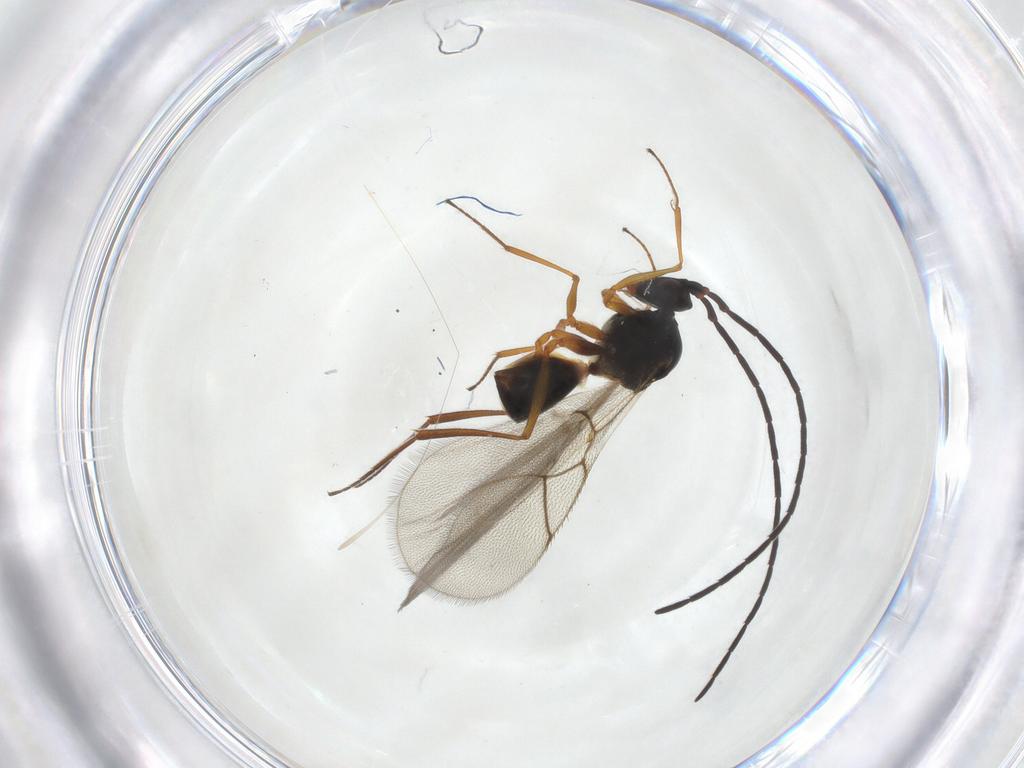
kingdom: Animalia
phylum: Arthropoda
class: Insecta
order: Hymenoptera
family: Figitidae
